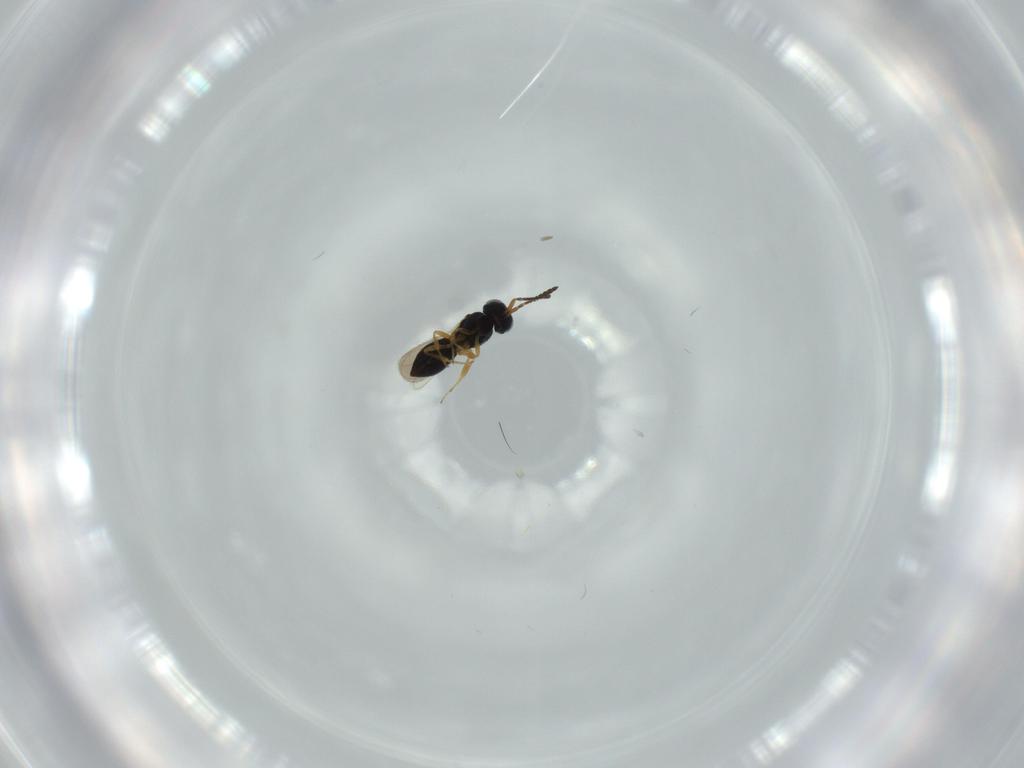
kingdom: Animalia
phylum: Arthropoda
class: Insecta
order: Hymenoptera
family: Scelionidae
